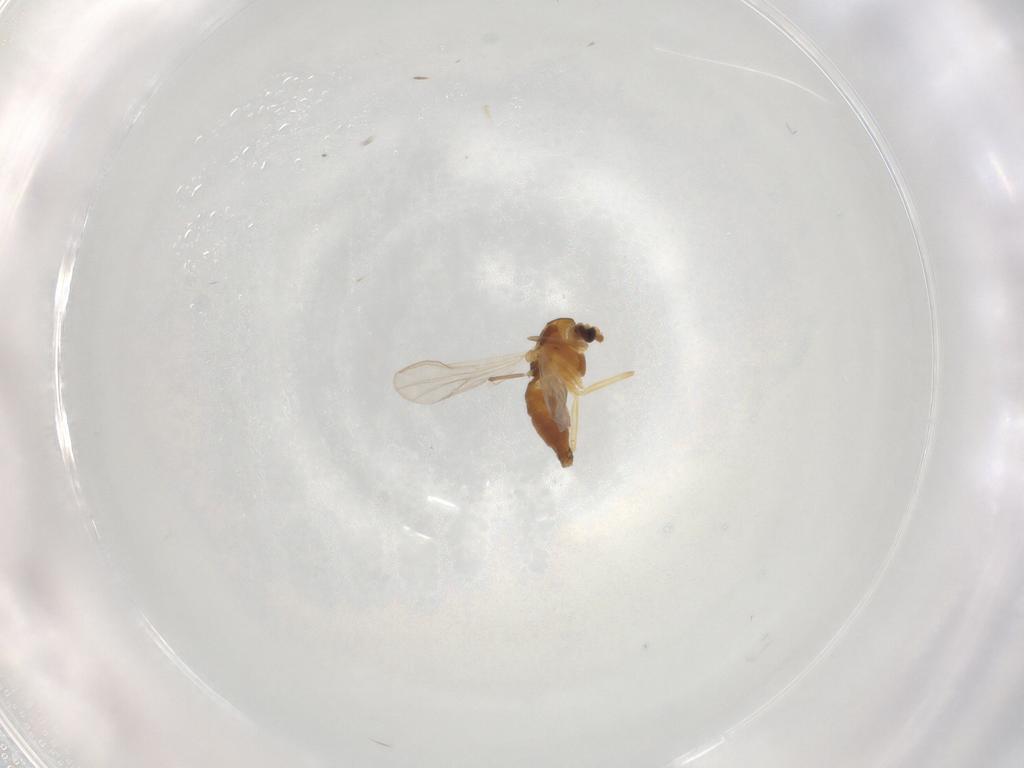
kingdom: Animalia
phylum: Arthropoda
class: Insecta
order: Diptera
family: Chironomidae
